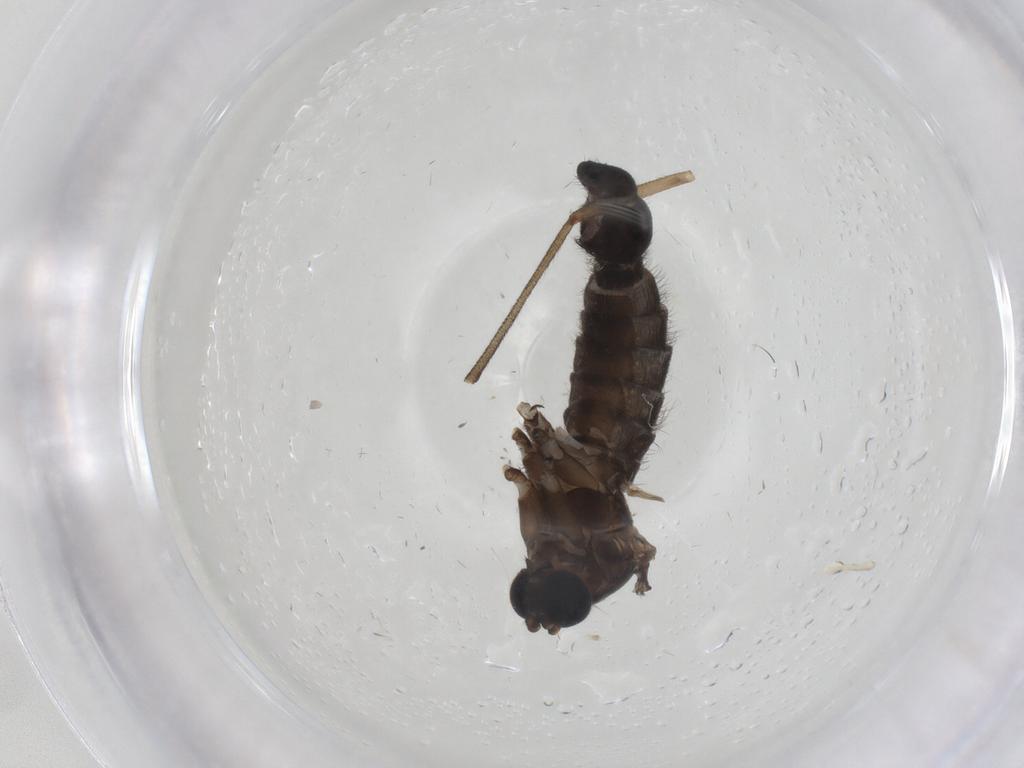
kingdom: Animalia
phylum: Arthropoda
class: Insecta
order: Diptera
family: Sciaridae
